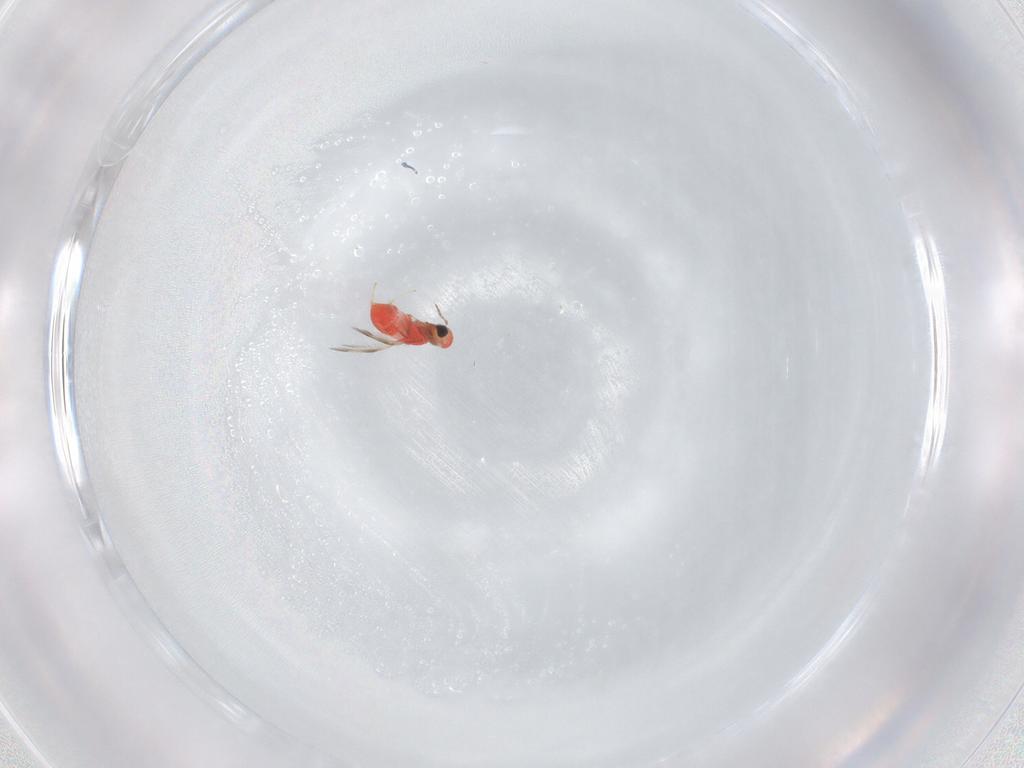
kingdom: Animalia
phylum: Arthropoda
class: Insecta
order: Hymenoptera
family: Trichogrammatidae
